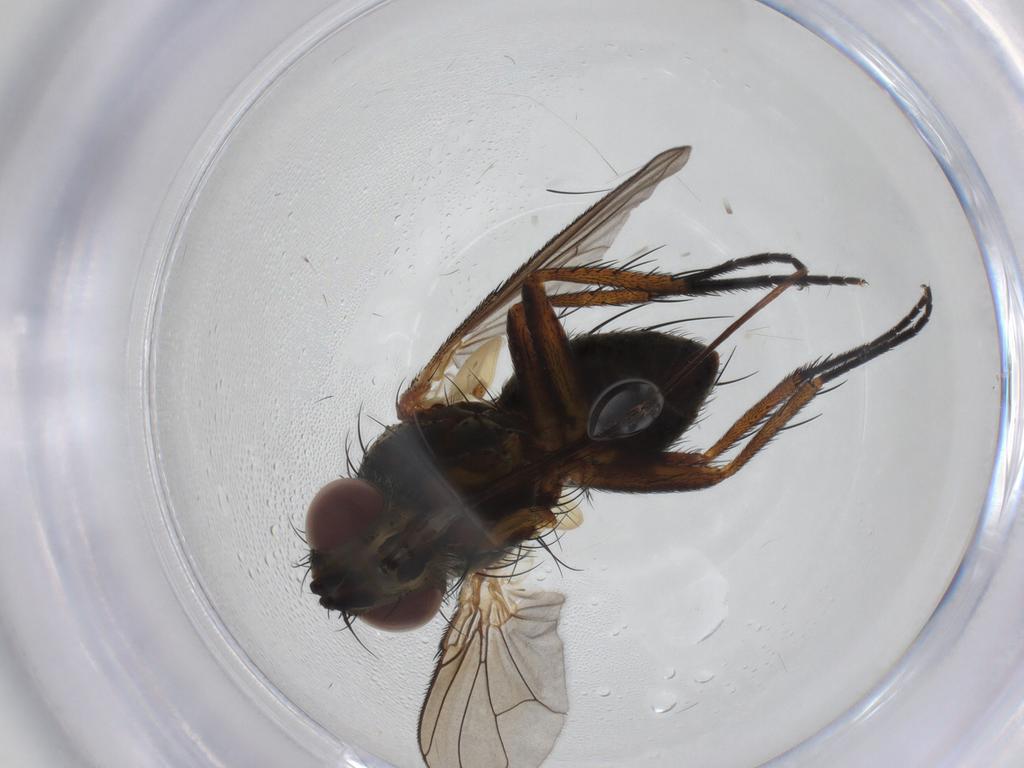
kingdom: Animalia
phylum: Arthropoda
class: Insecta
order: Diptera
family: Tachinidae
